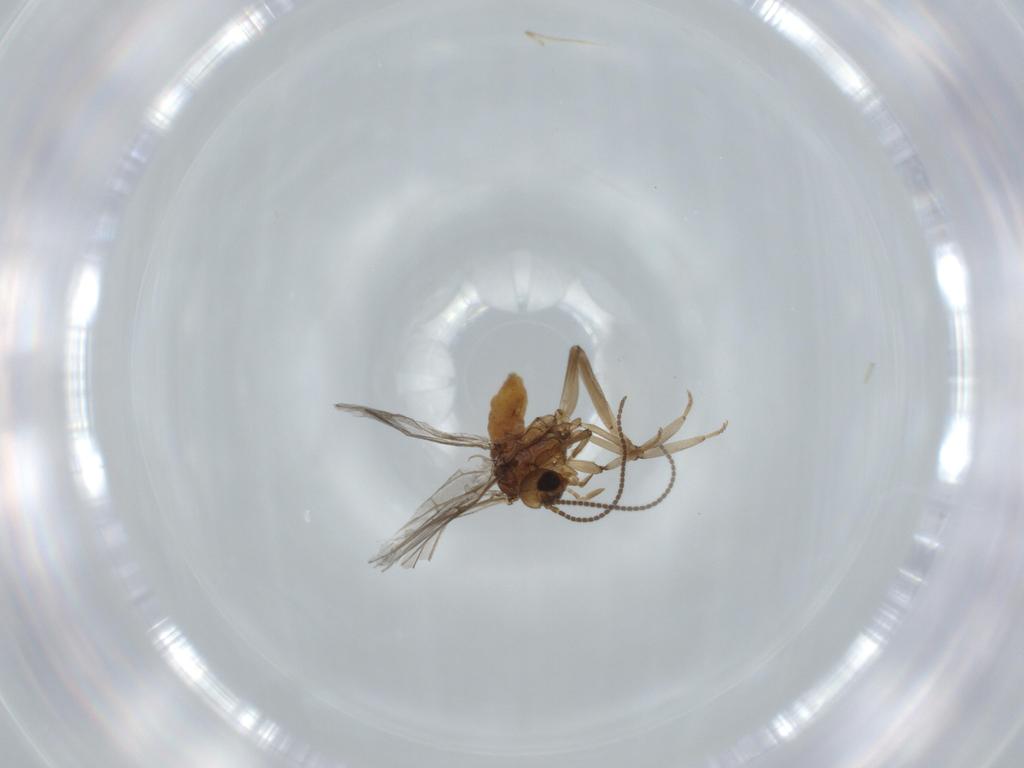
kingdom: Animalia
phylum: Arthropoda
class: Insecta
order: Neuroptera
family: Coniopterygidae
